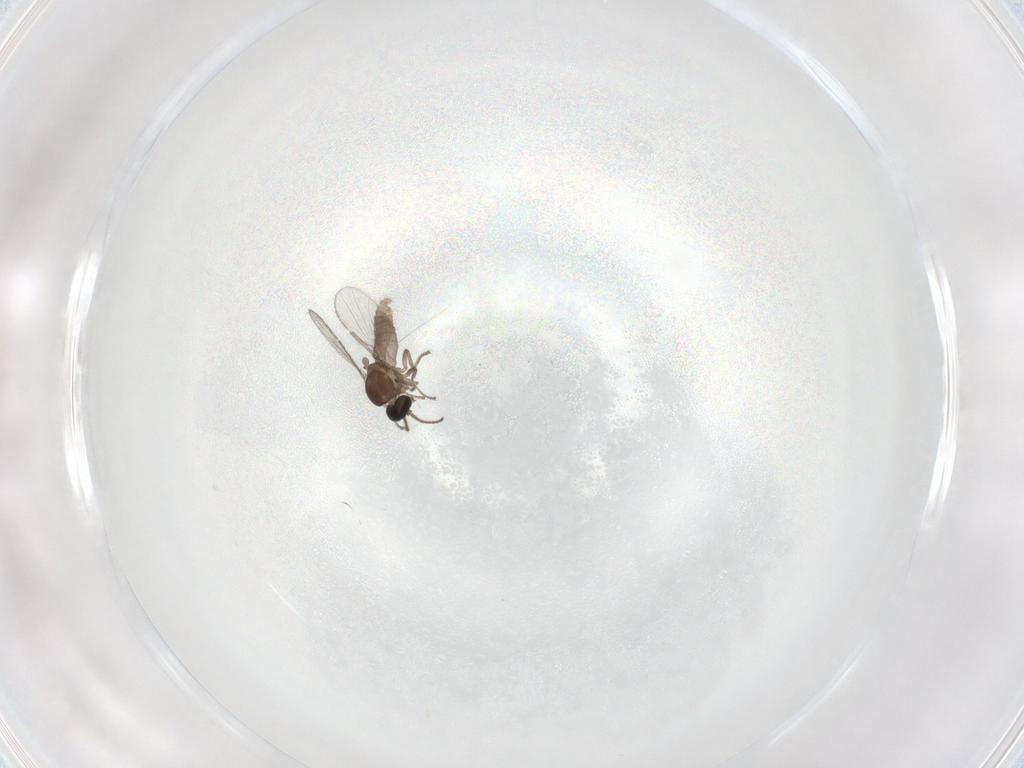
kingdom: Animalia
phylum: Arthropoda
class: Insecta
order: Diptera
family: Ceratopogonidae
